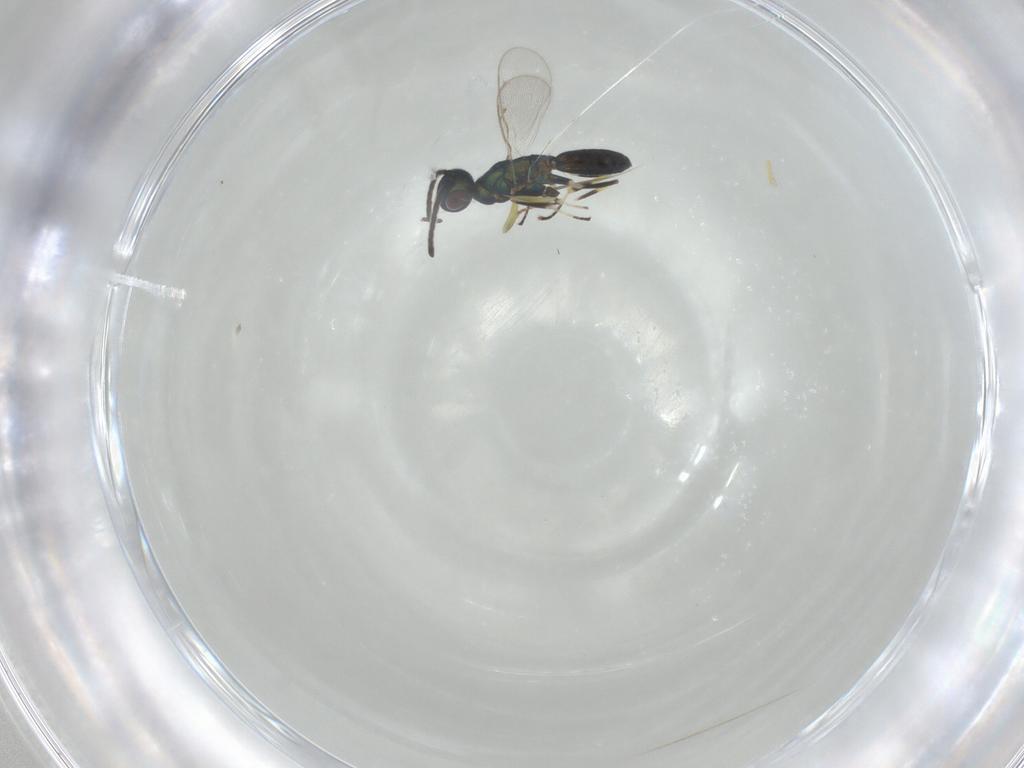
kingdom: Animalia
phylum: Arthropoda
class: Insecta
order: Hymenoptera
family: Eupelmidae
